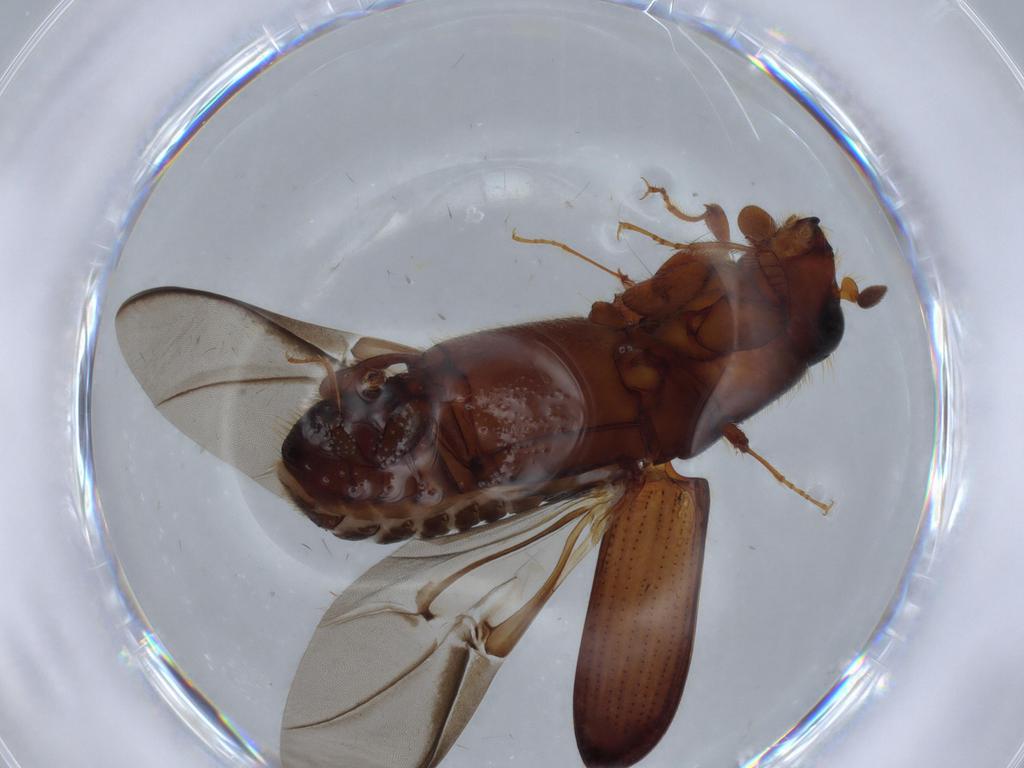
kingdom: Animalia
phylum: Arthropoda
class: Insecta
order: Coleoptera
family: Curculionidae
